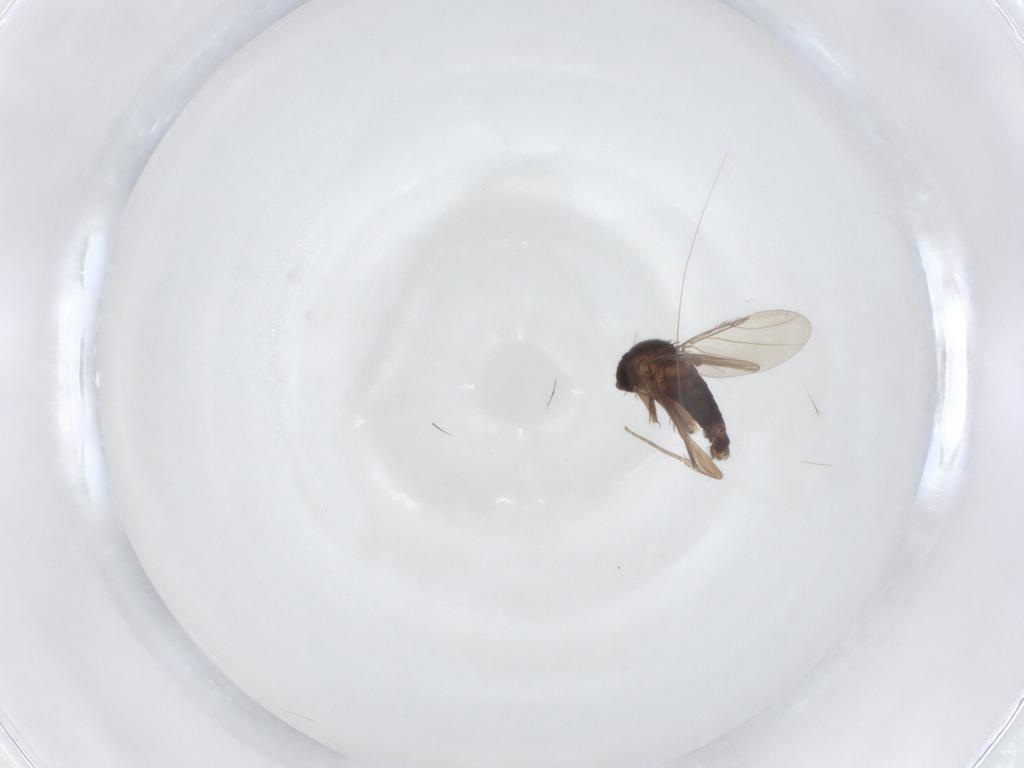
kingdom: Animalia
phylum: Arthropoda
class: Insecta
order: Diptera
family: Phoridae
